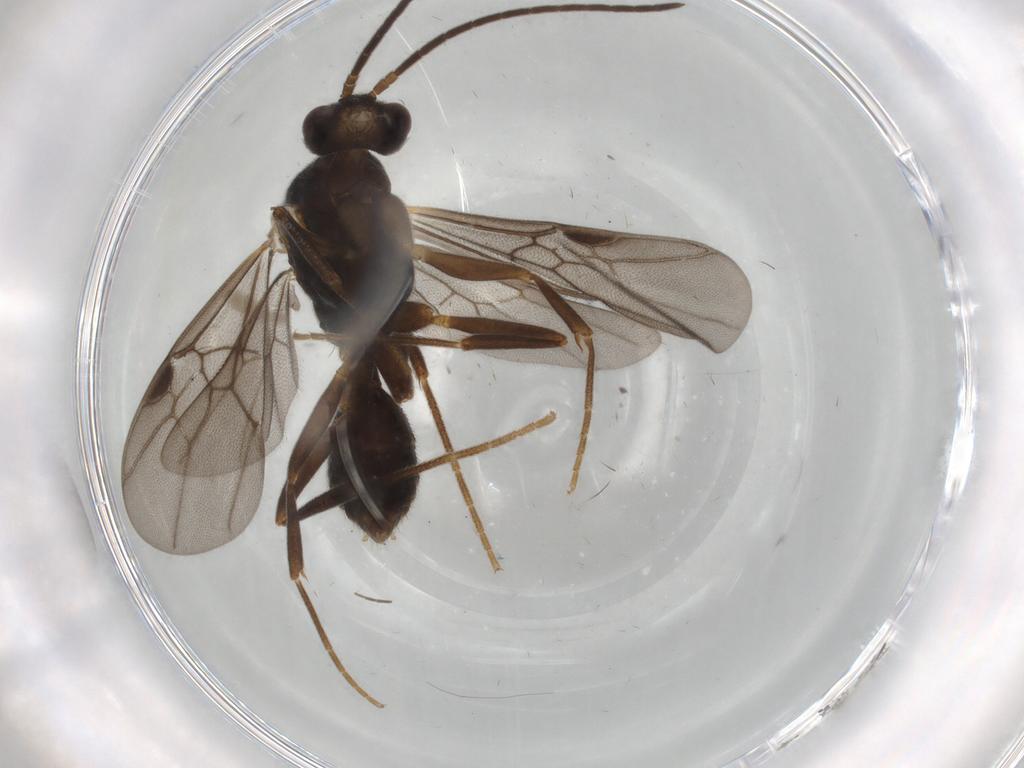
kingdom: Animalia
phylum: Arthropoda
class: Insecta
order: Hymenoptera
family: Formicidae
